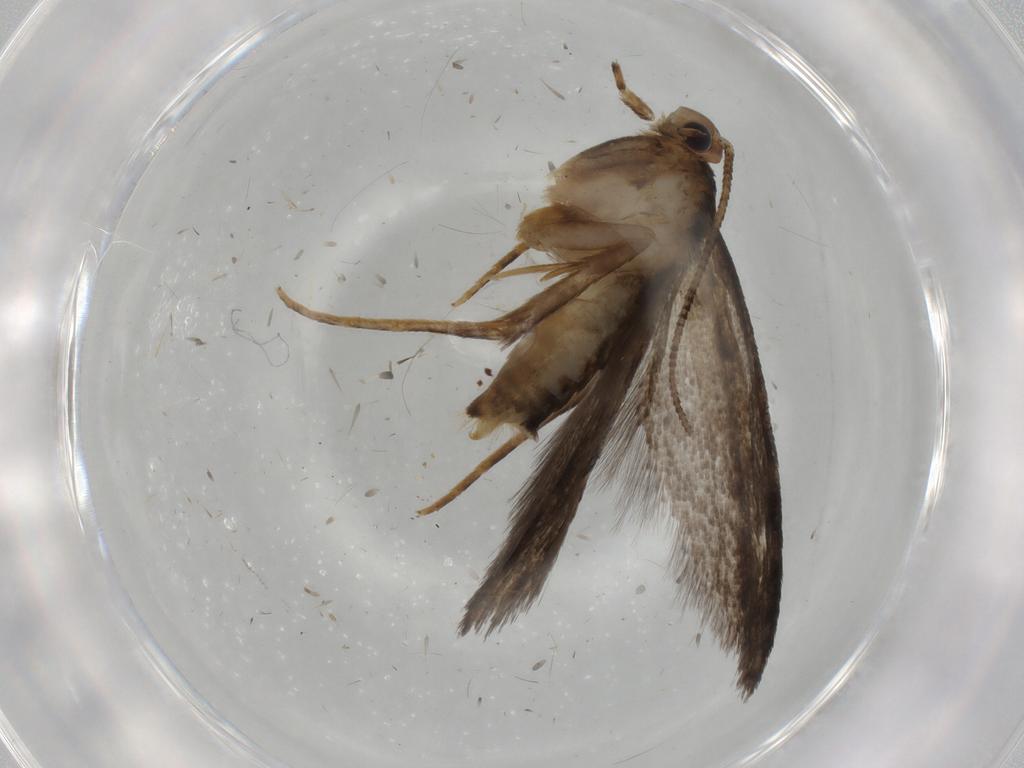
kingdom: Animalia
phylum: Arthropoda
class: Insecta
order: Lepidoptera
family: Tineidae
